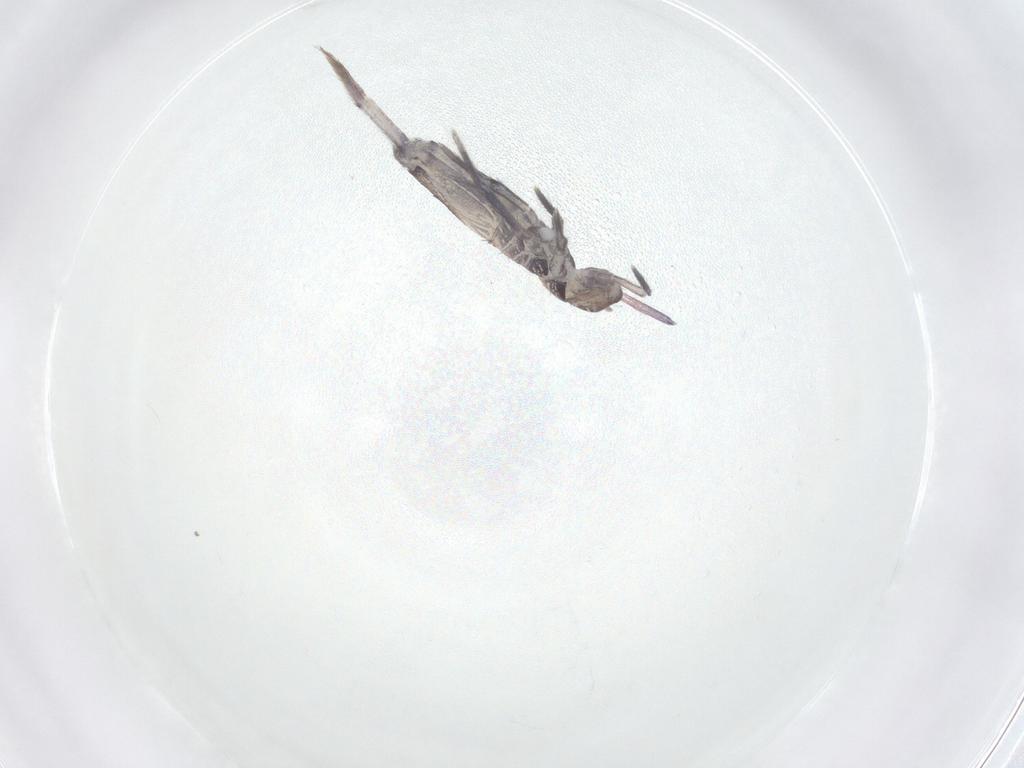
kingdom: Animalia
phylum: Arthropoda
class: Collembola
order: Entomobryomorpha
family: Entomobryidae
